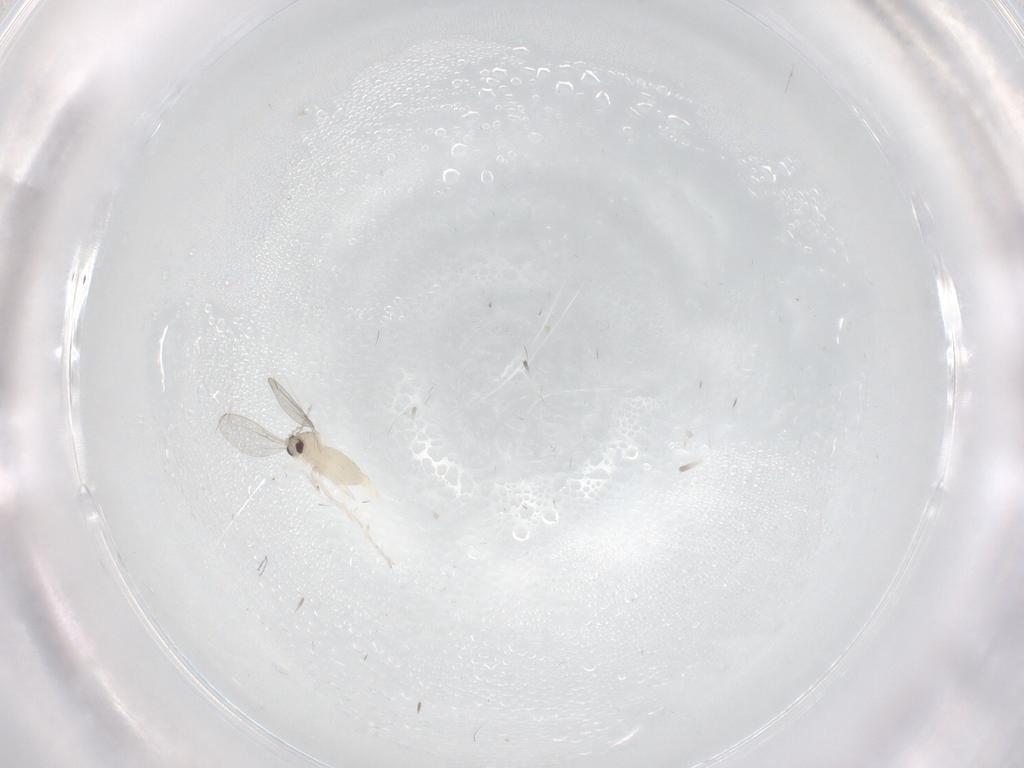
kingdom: Animalia
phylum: Arthropoda
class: Insecta
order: Diptera
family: Cecidomyiidae
